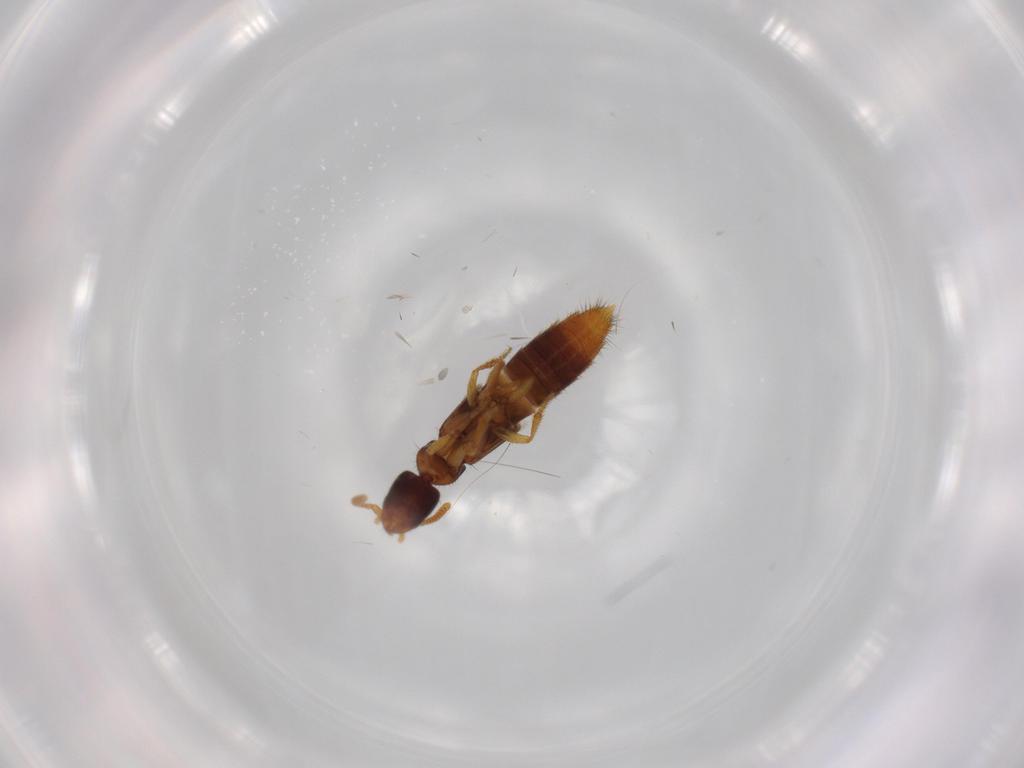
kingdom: Animalia
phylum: Arthropoda
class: Insecta
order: Coleoptera
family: Staphylinidae
